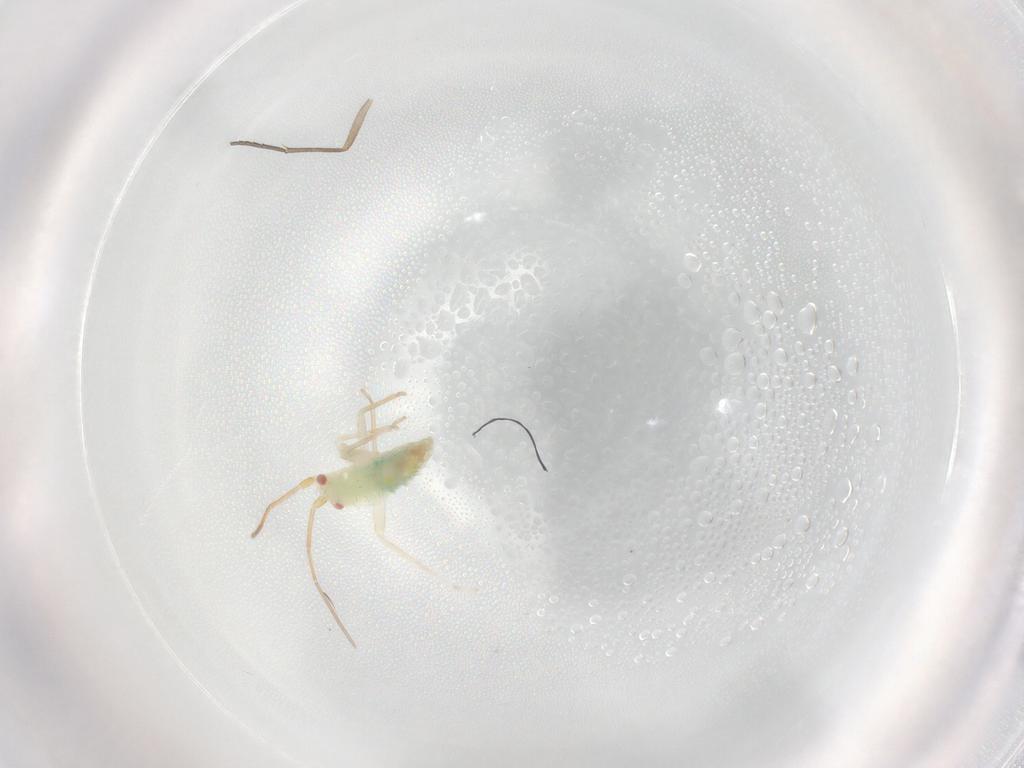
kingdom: Animalia
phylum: Arthropoda
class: Insecta
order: Hemiptera
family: Miridae
